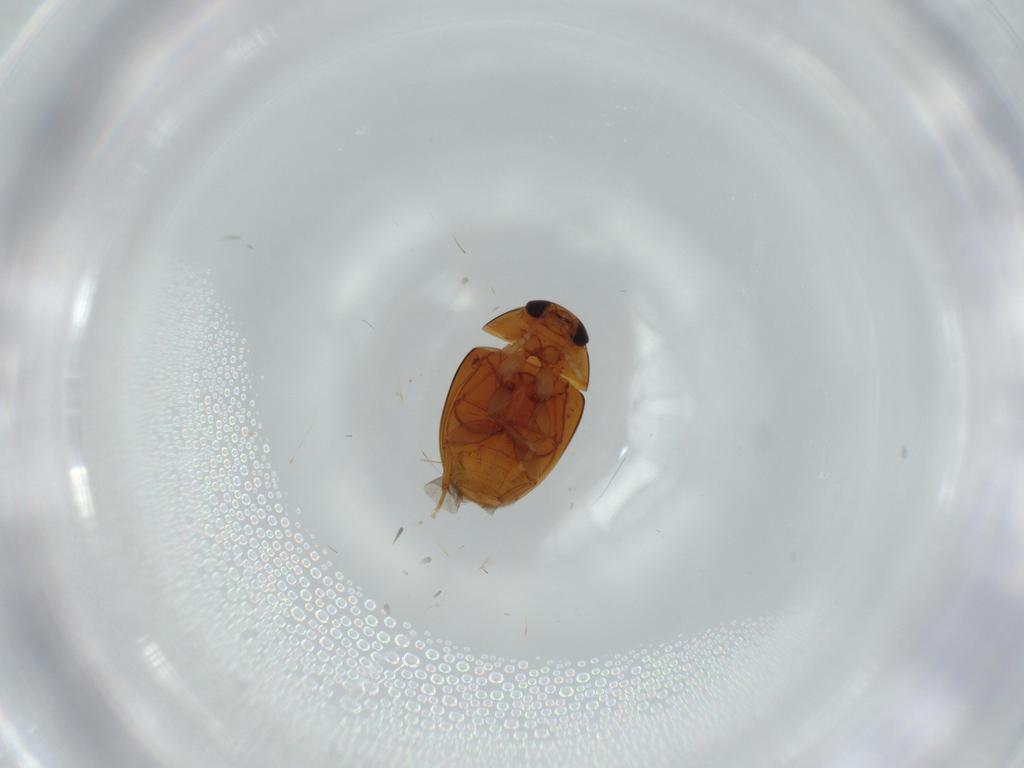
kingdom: Animalia
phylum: Arthropoda
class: Insecta
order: Coleoptera
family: Phalacridae
